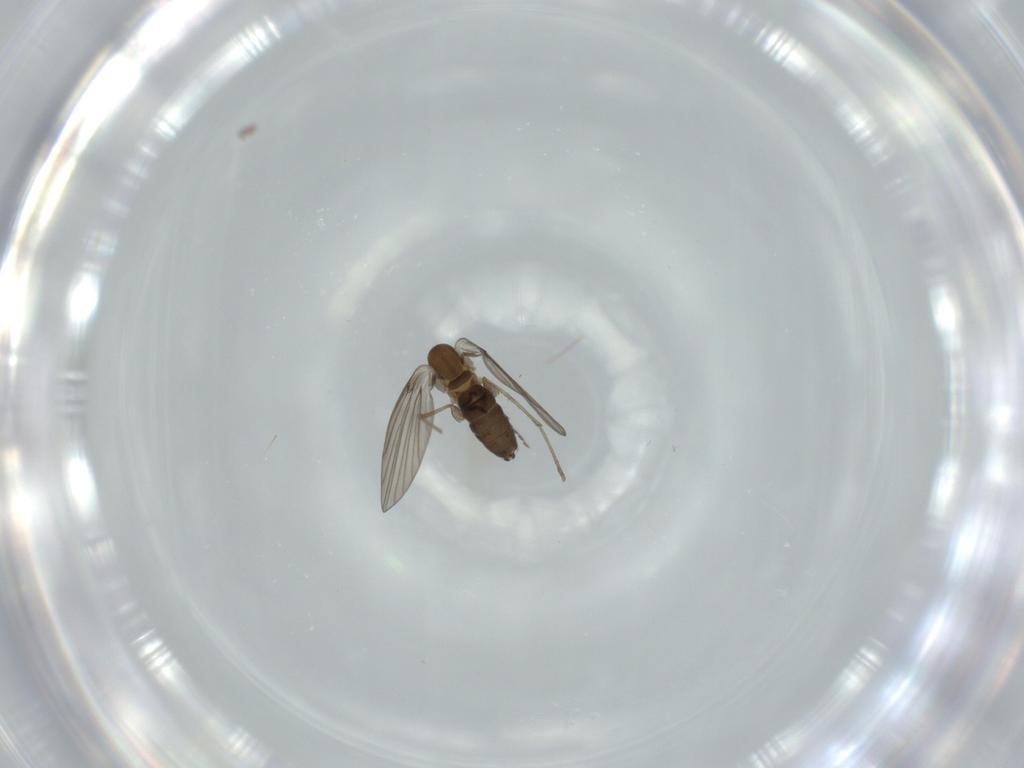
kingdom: Animalia
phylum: Arthropoda
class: Insecta
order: Diptera
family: Psychodidae
